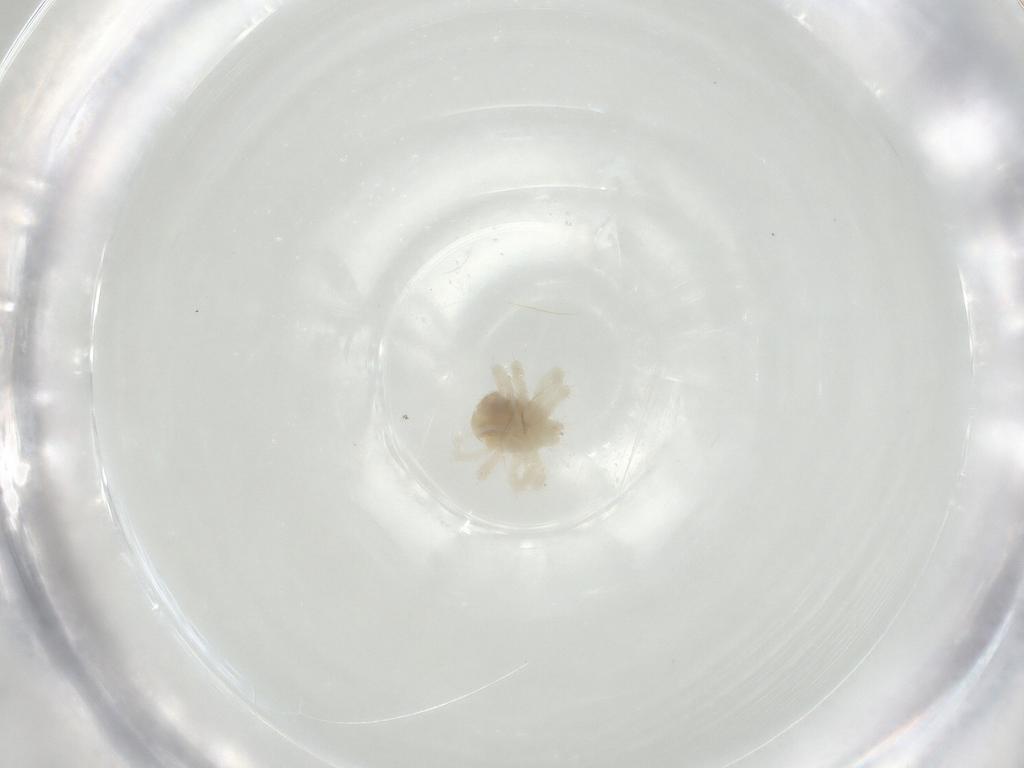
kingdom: Animalia
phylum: Arthropoda
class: Arachnida
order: Trombidiformes
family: Anystidae
